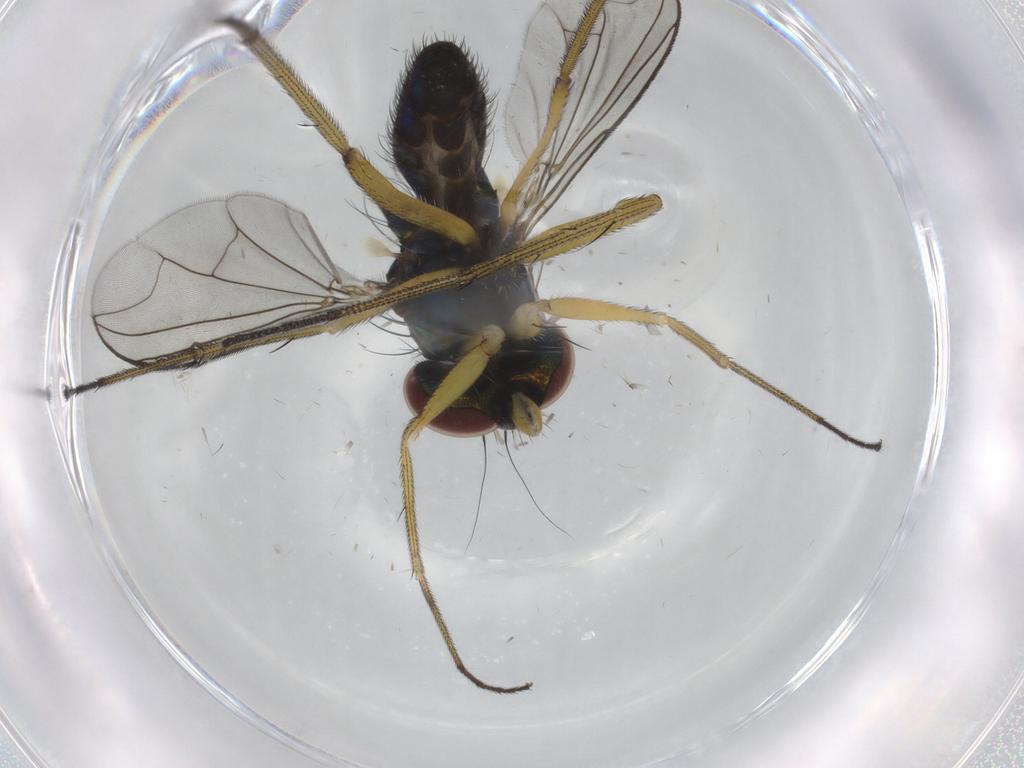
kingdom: Animalia
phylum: Arthropoda
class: Insecta
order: Diptera
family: Dolichopodidae
